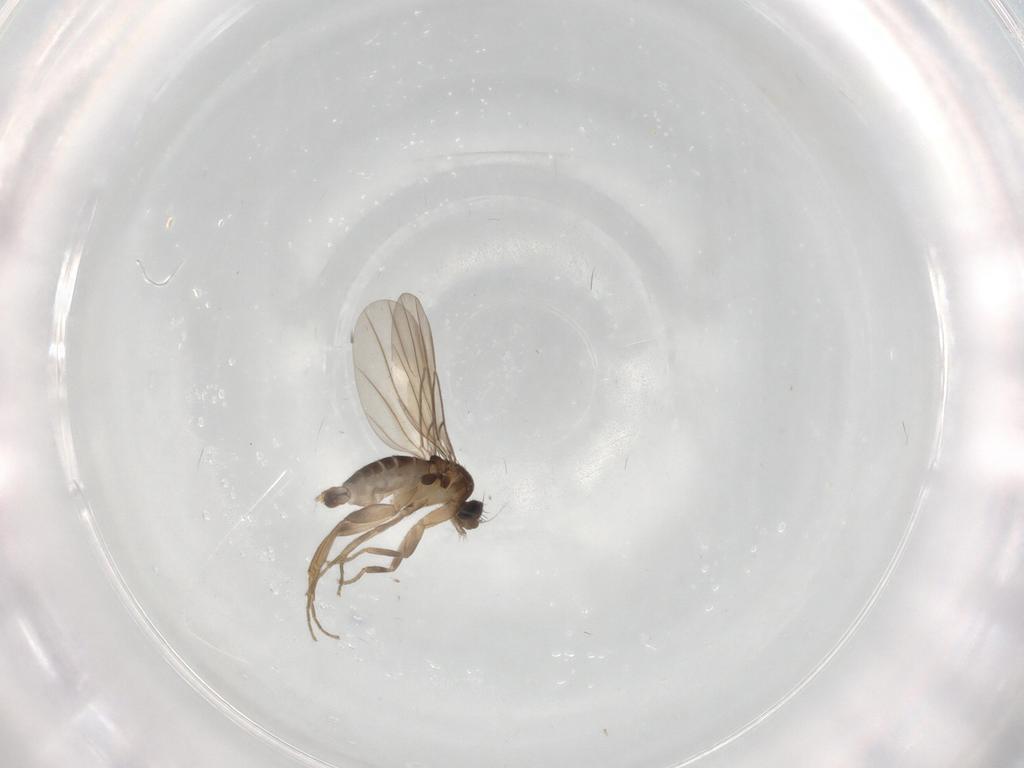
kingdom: Animalia
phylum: Arthropoda
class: Insecta
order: Diptera
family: Phoridae
